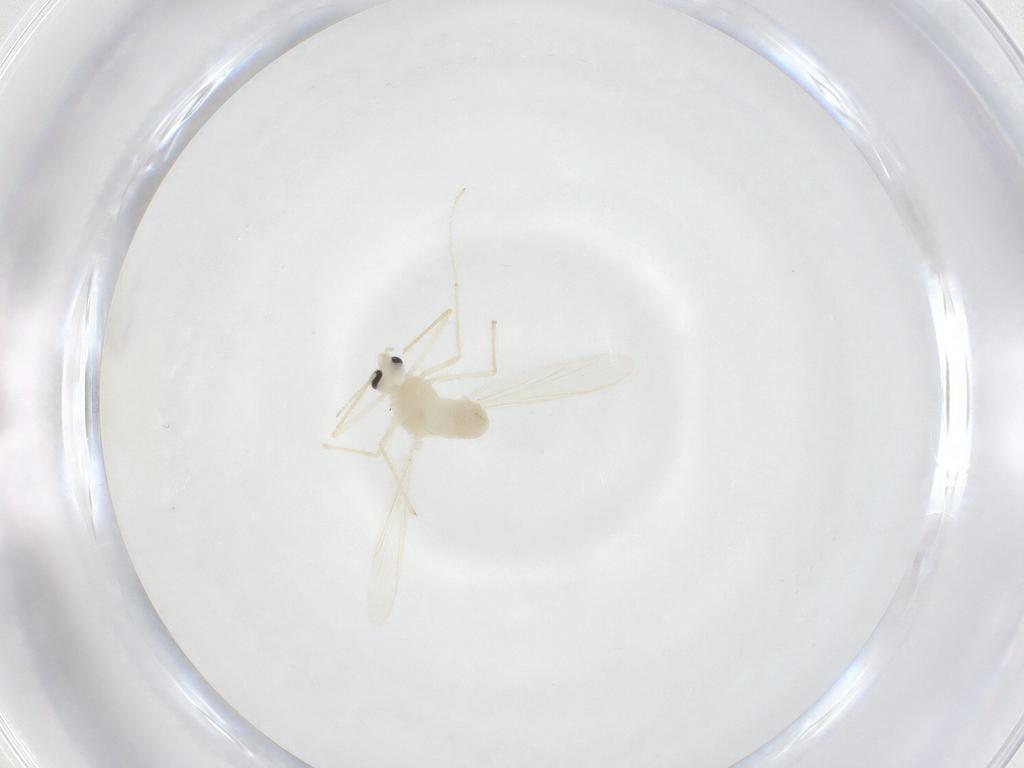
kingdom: Animalia
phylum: Arthropoda
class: Insecta
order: Diptera
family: Chironomidae
